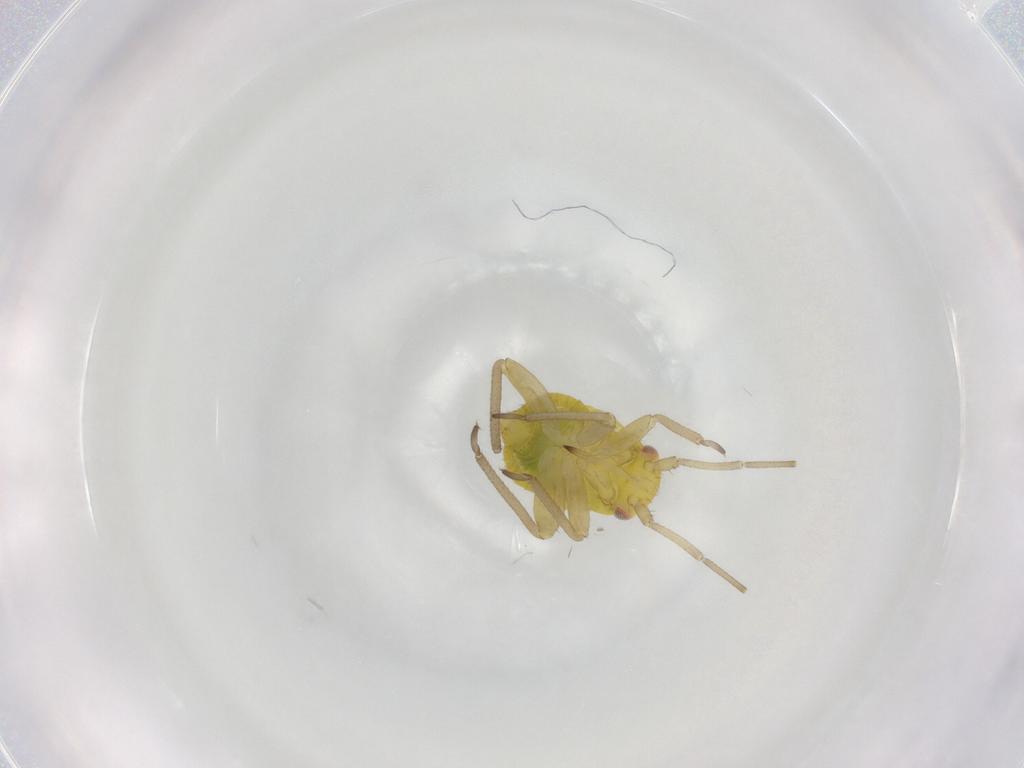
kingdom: Animalia
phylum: Arthropoda
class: Insecta
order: Hemiptera
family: Miridae
